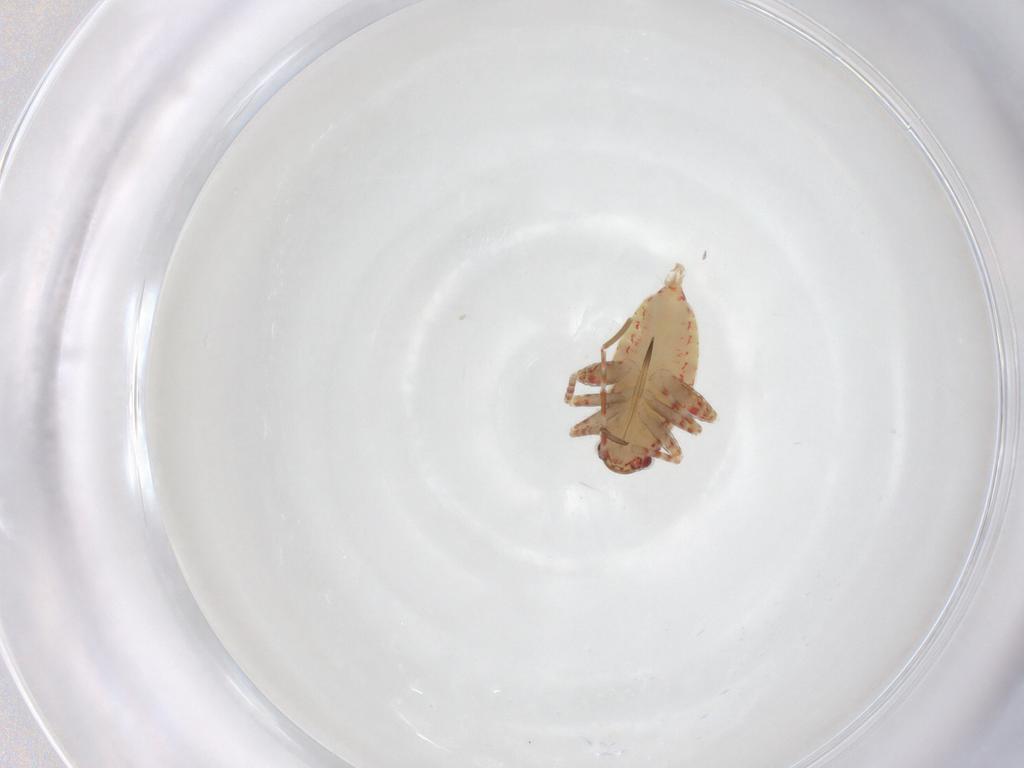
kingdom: Animalia
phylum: Arthropoda
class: Insecta
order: Hemiptera
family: Miridae
